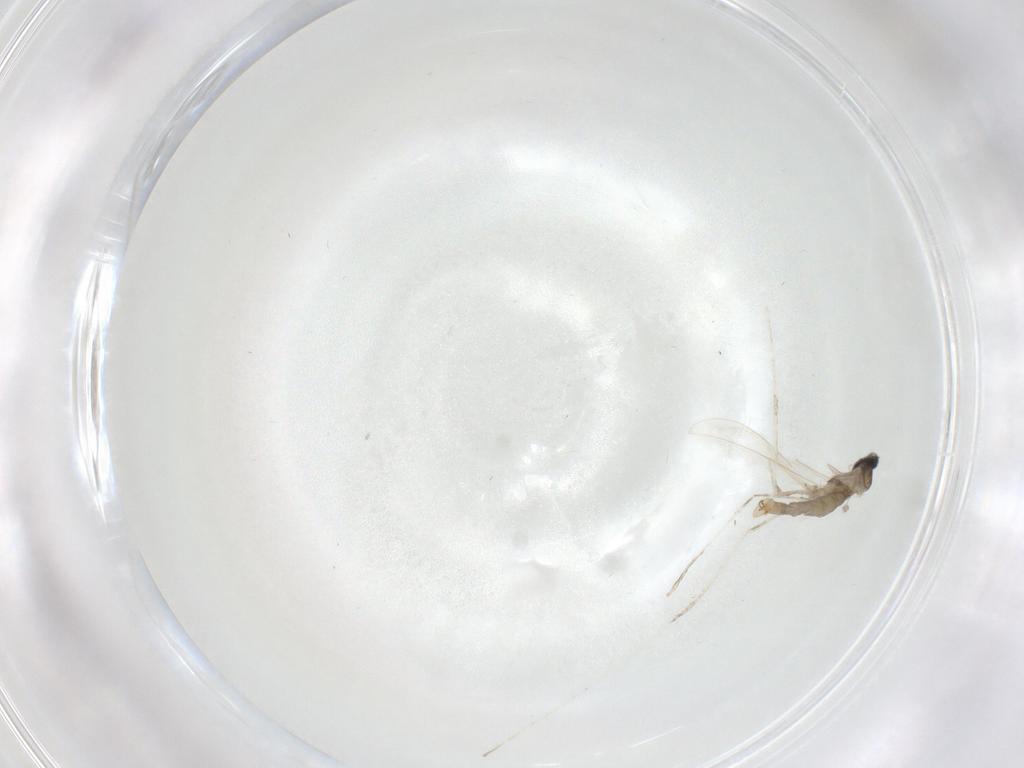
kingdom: Animalia
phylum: Arthropoda
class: Insecta
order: Diptera
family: Cecidomyiidae
